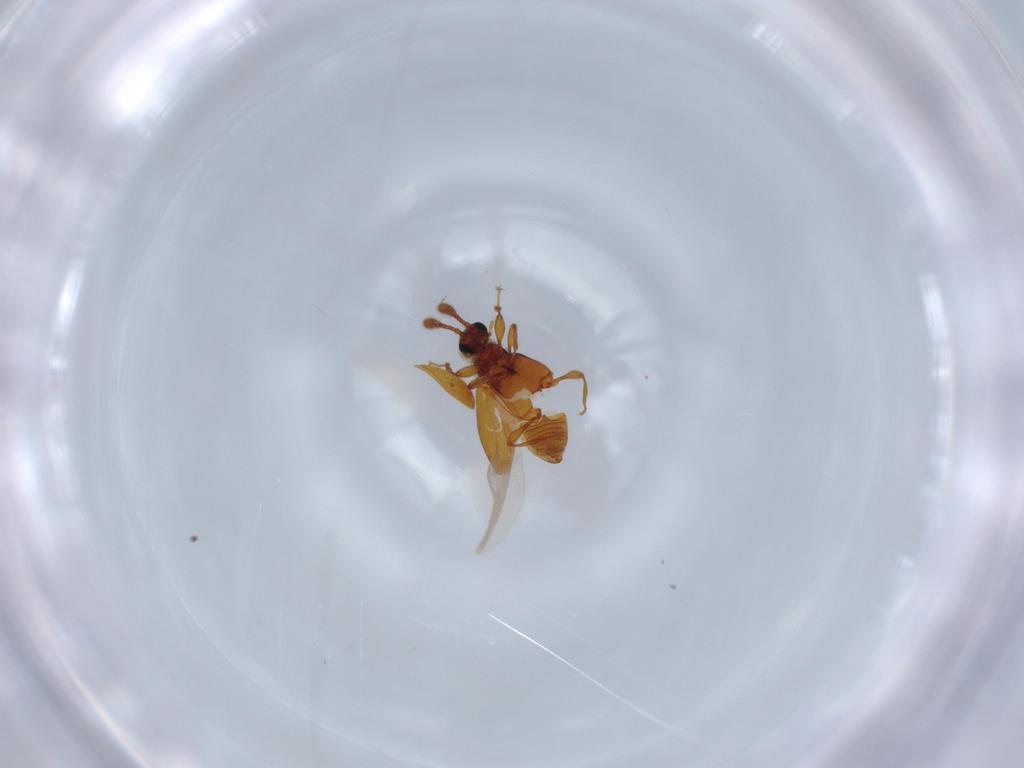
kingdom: Animalia
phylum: Arthropoda
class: Insecta
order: Coleoptera
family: Staphylinidae
